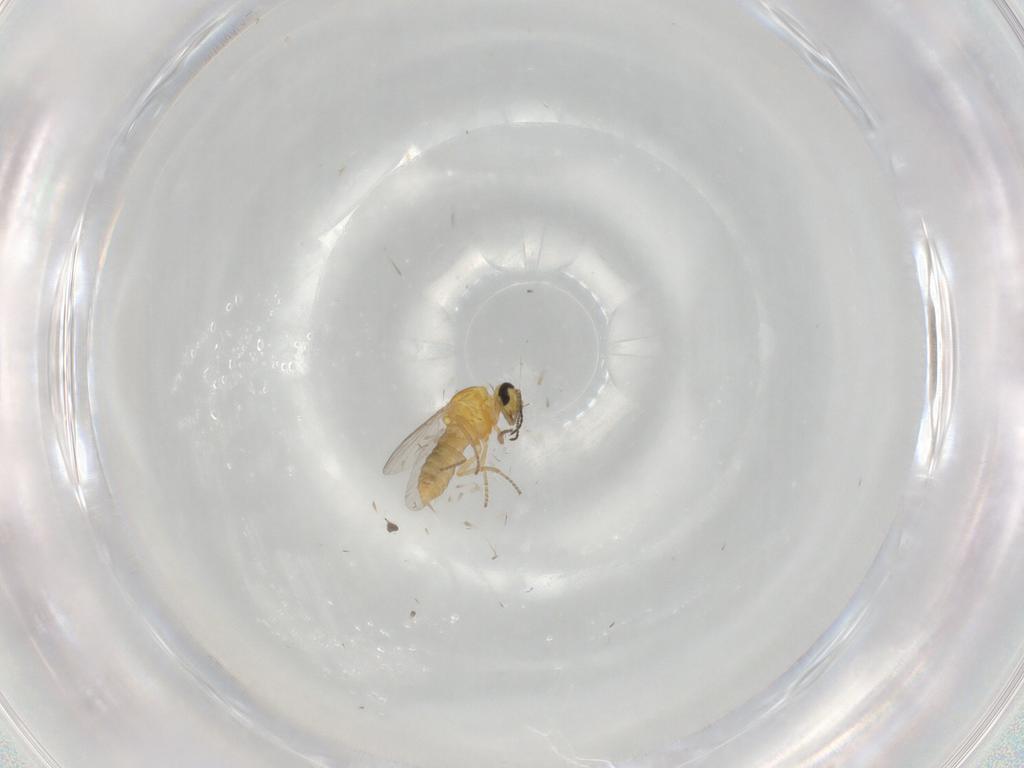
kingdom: Animalia
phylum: Arthropoda
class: Insecta
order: Diptera
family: Ceratopogonidae
